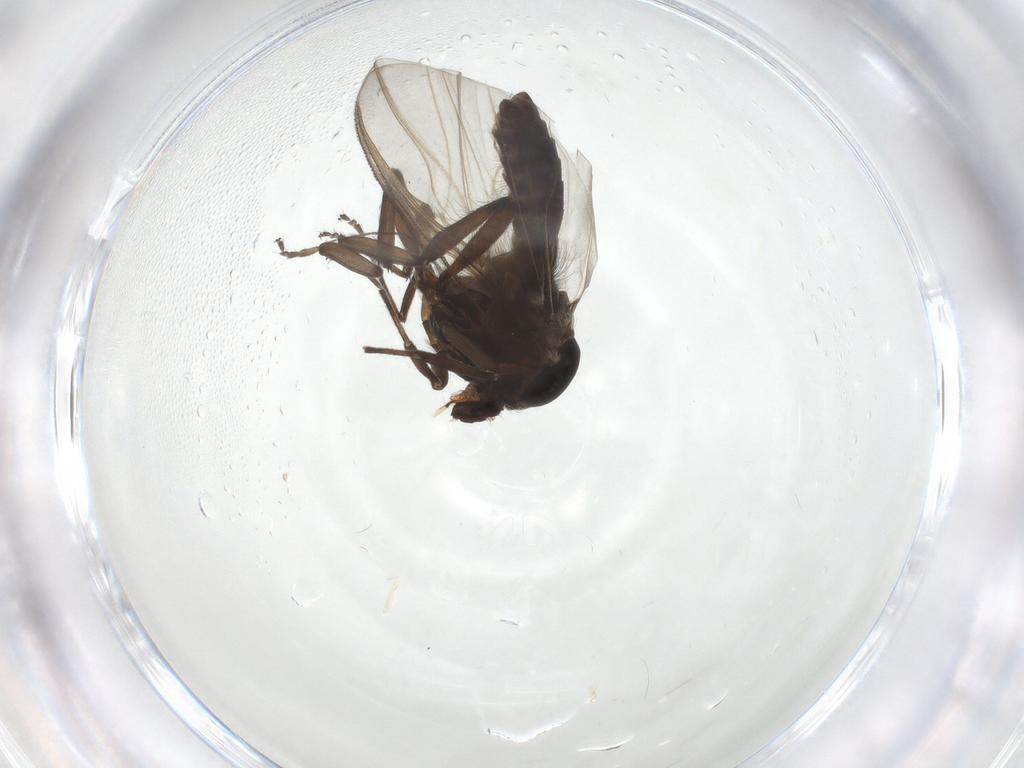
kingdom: Animalia
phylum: Arthropoda
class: Insecta
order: Diptera
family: Simuliidae
